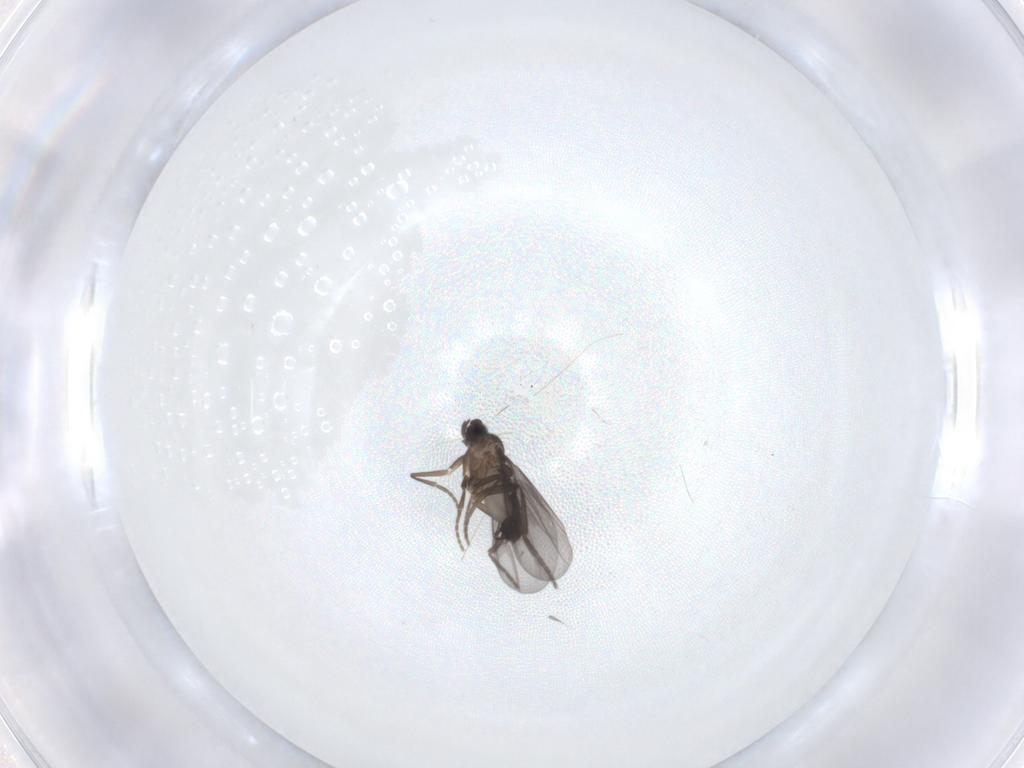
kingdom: Animalia
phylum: Arthropoda
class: Insecta
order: Diptera
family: Phoridae
